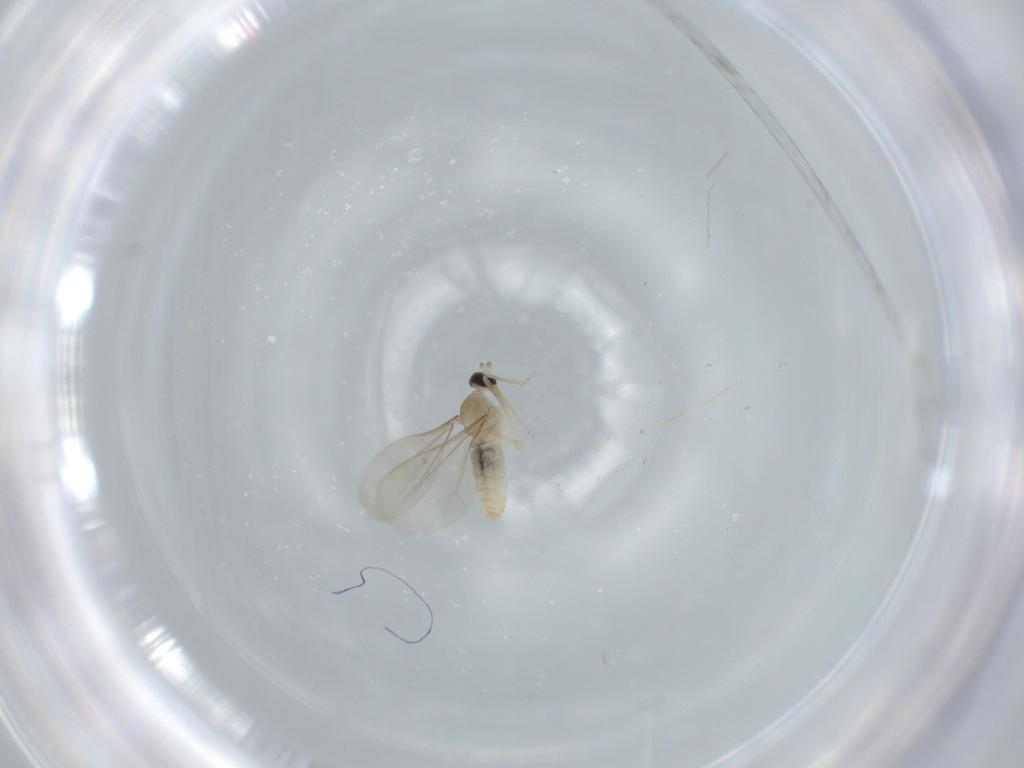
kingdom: Animalia
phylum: Arthropoda
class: Insecta
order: Diptera
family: Cecidomyiidae
